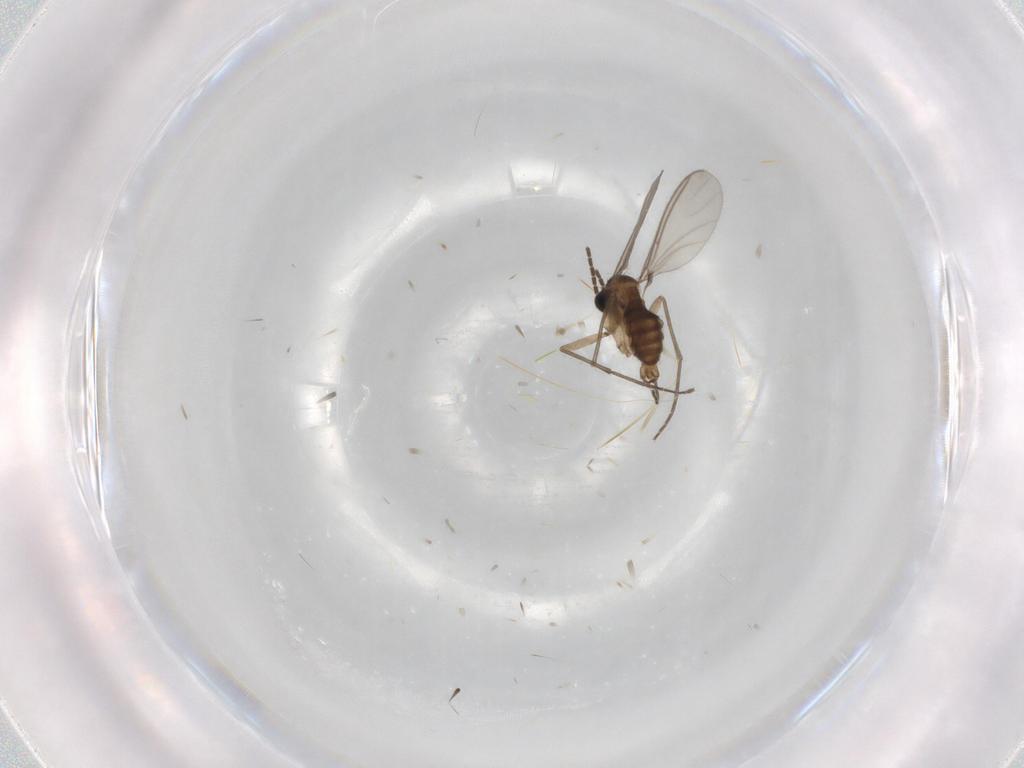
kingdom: Animalia
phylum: Arthropoda
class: Insecta
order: Diptera
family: Sciaridae
